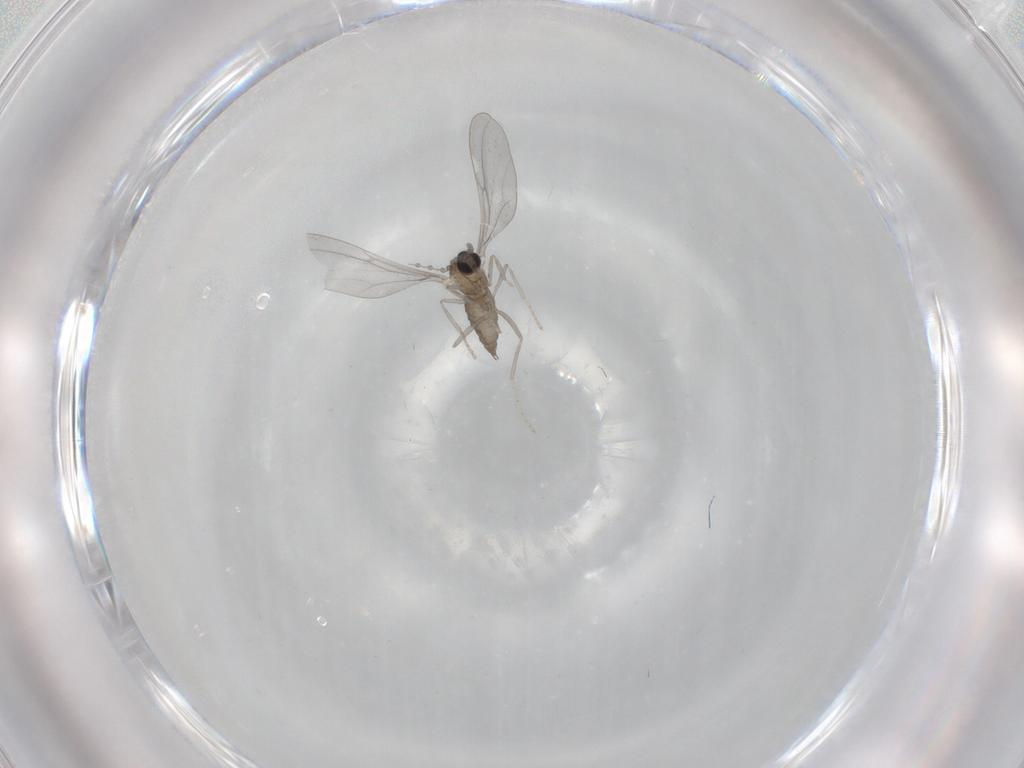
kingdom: Animalia
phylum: Arthropoda
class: Insecta
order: Diptera
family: Cecidomyiidae
